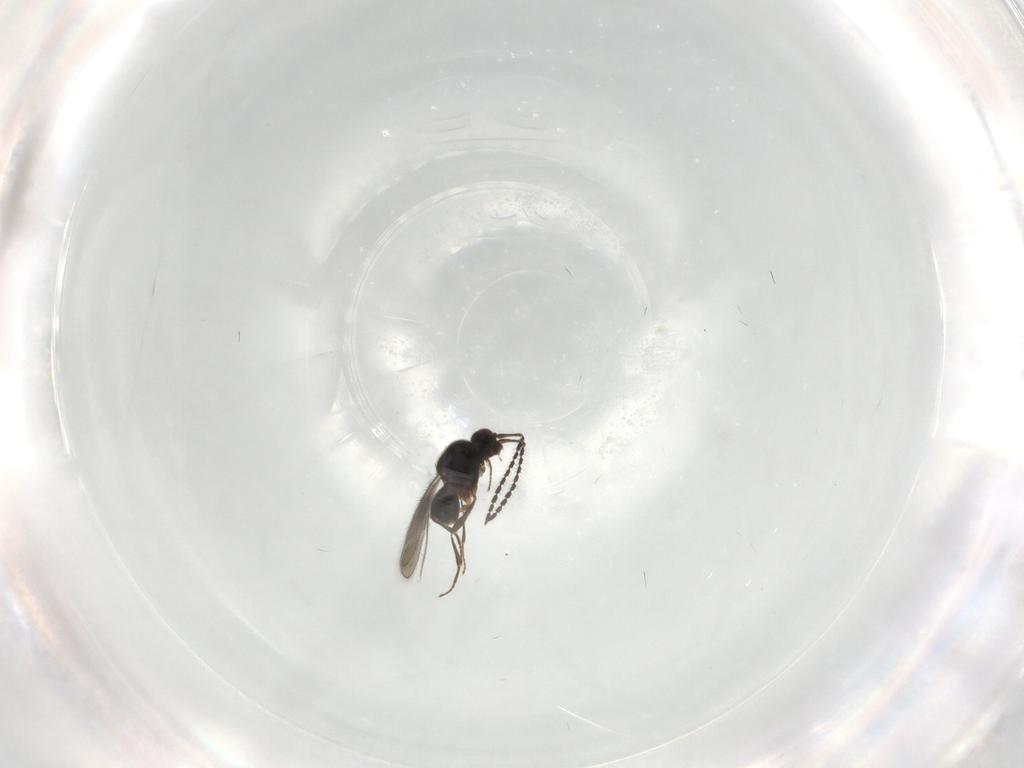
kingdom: Animalia
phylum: Arthropoda
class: Insecta
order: Hymenoptera
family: Ceraphronidae
